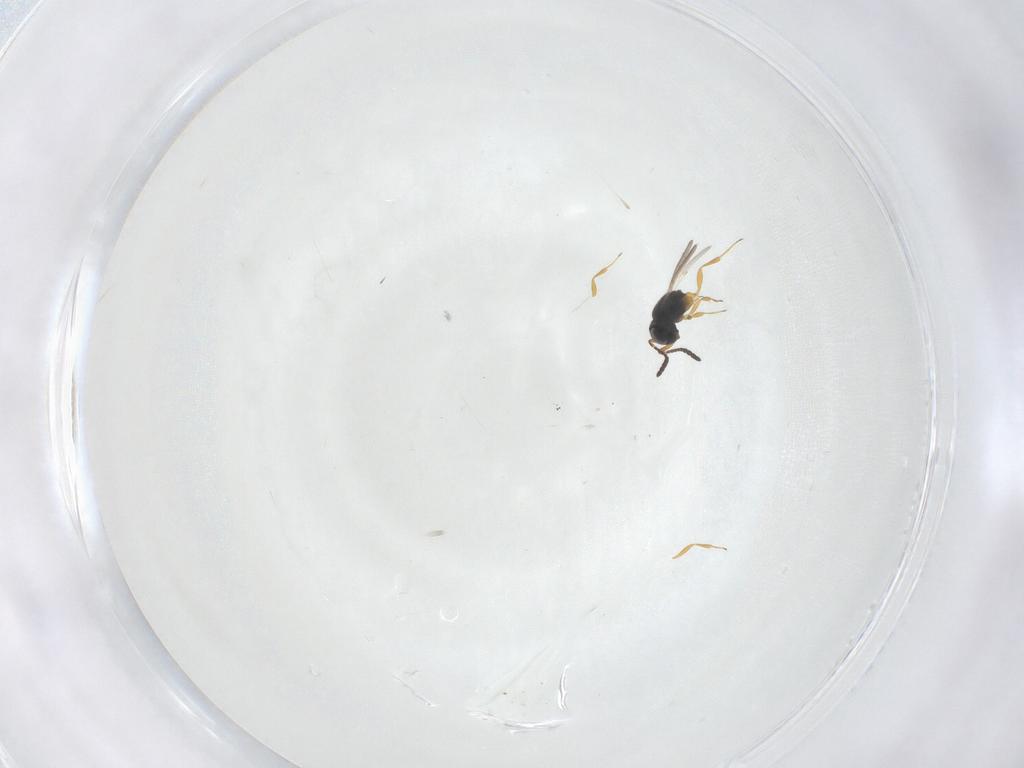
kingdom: Animalia
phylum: Arthropoda
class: Insecta
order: Hymenoptera
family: Scelionidae
